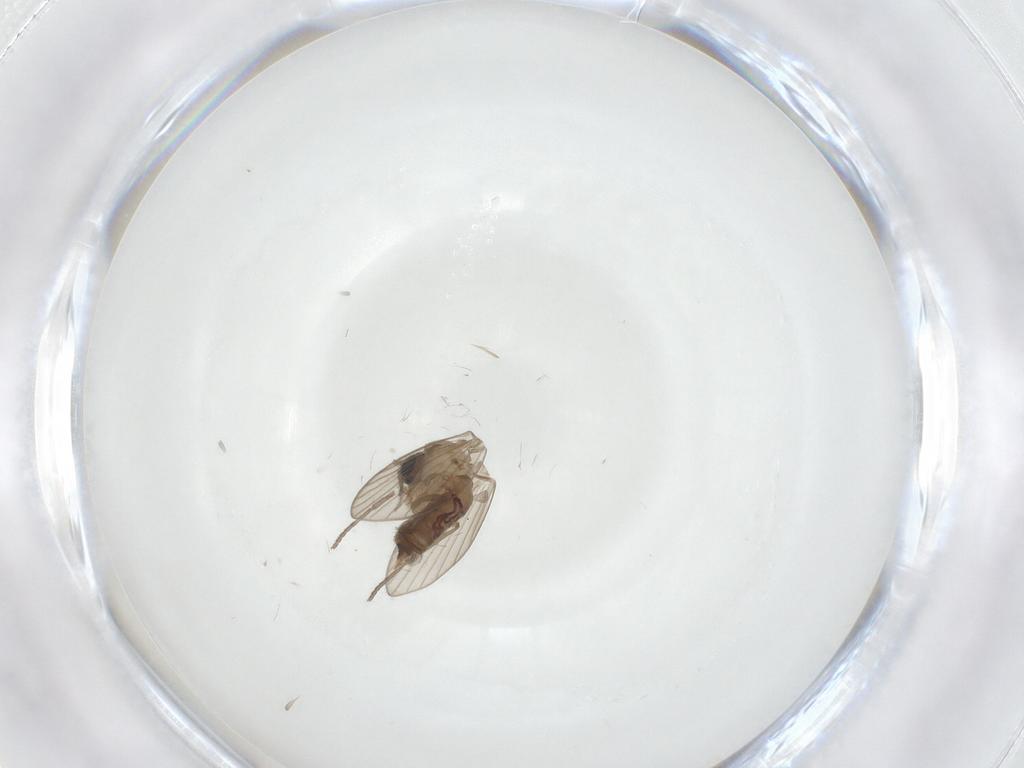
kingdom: Animalia
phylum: Arthropoda
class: Insecta
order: Diptera
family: Psychodidae
